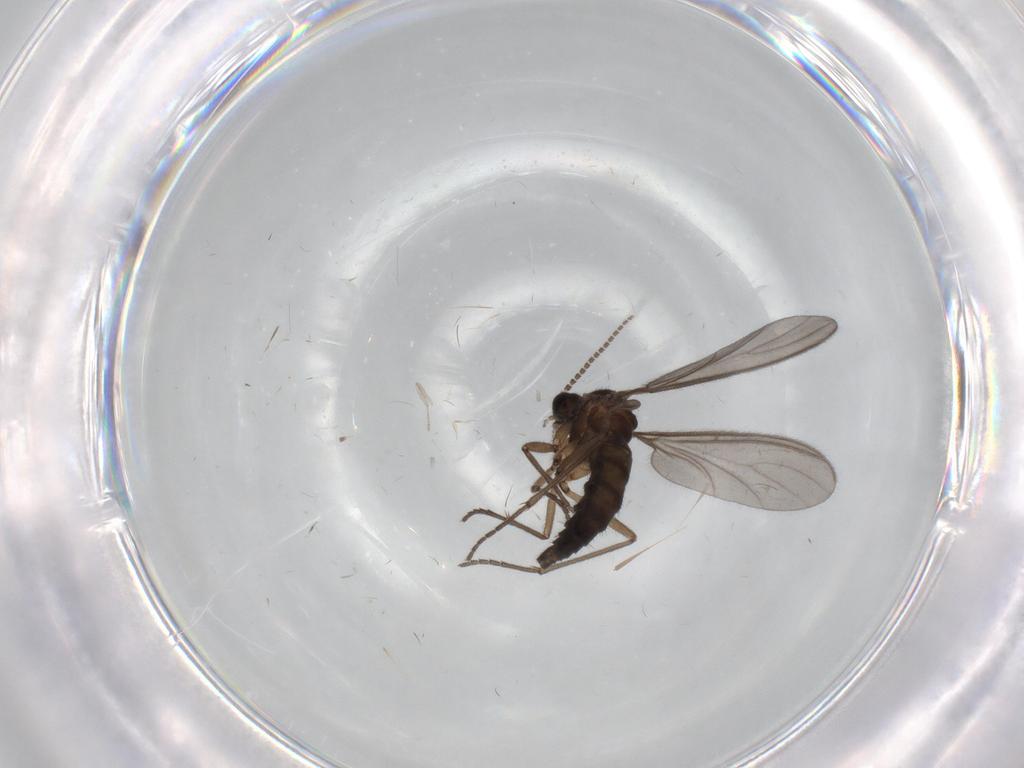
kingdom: Animalia
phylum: Arthropoda
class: Insecta
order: Diptera
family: Sciaridae
